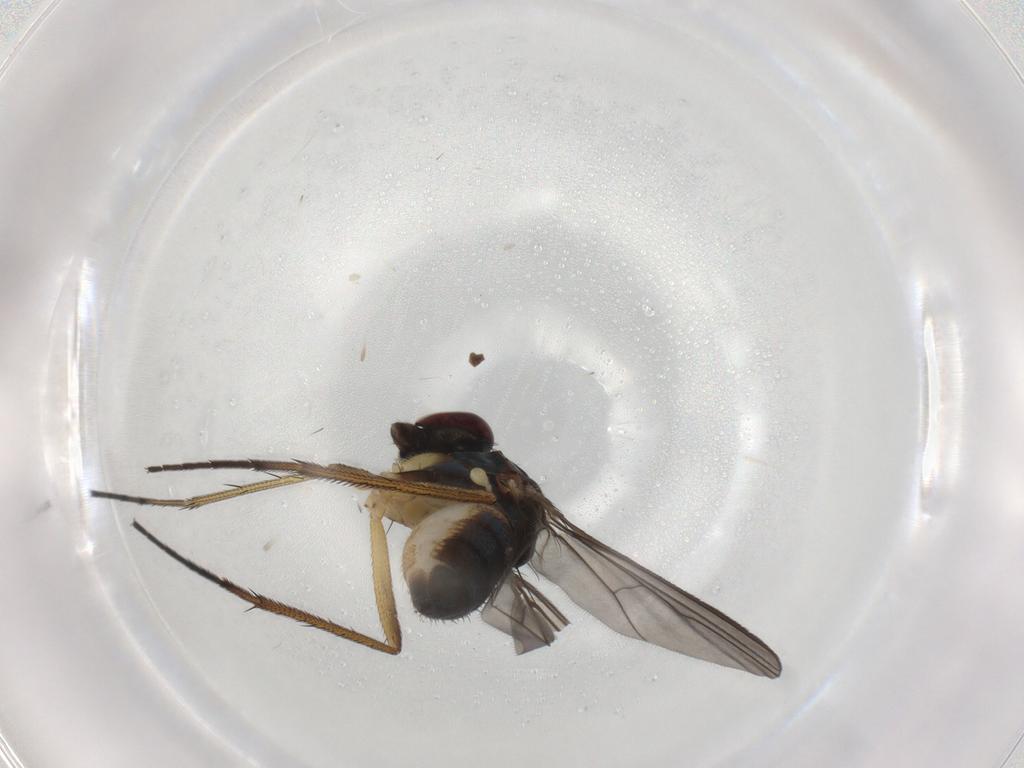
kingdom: Animalia
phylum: Arthropoda
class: Insecta
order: Diptera
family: Dolichopodidae
